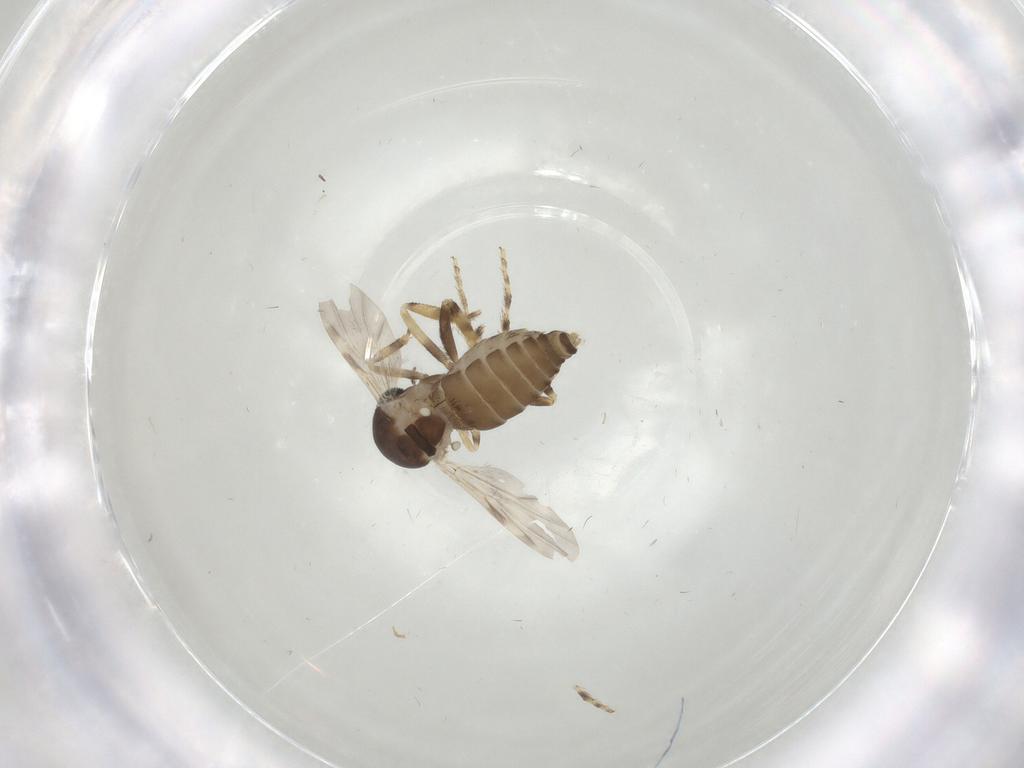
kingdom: Animalia
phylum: Arthropoda
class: Insecta
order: Diptera
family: Ceratopogonidae
